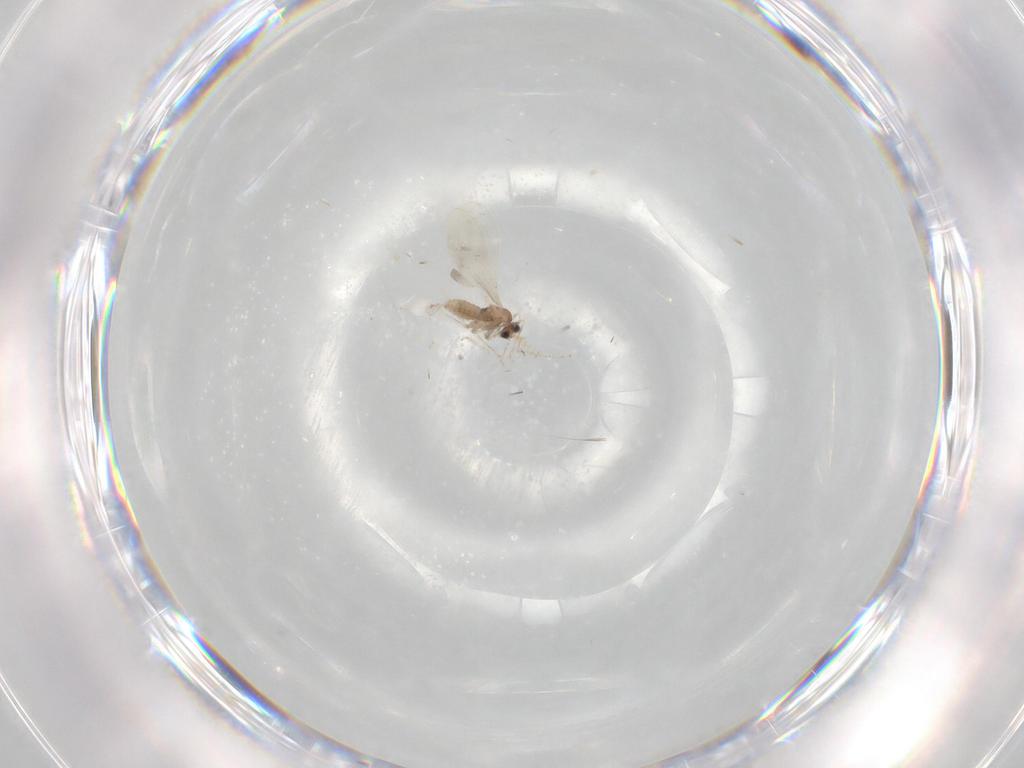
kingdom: Animalia
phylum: Arthropoda
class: Insecta
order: Diptera
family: Cecidomyiidae
